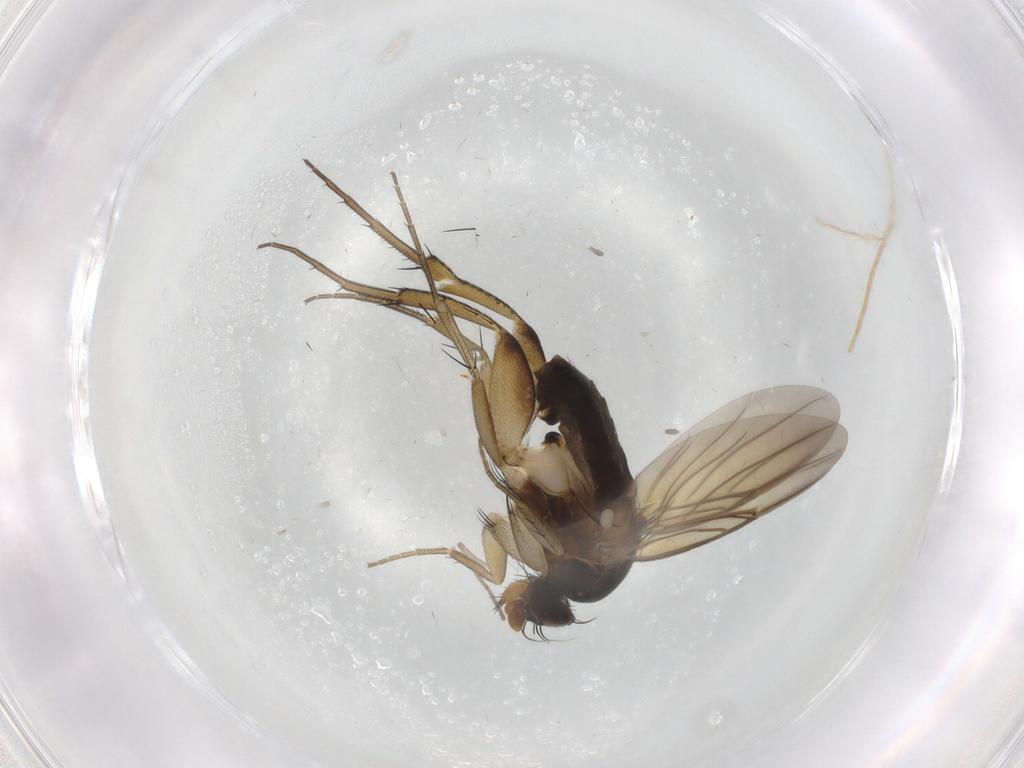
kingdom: Animalia
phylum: Arthropoda
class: Insecta
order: Diptera
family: Phoridae
